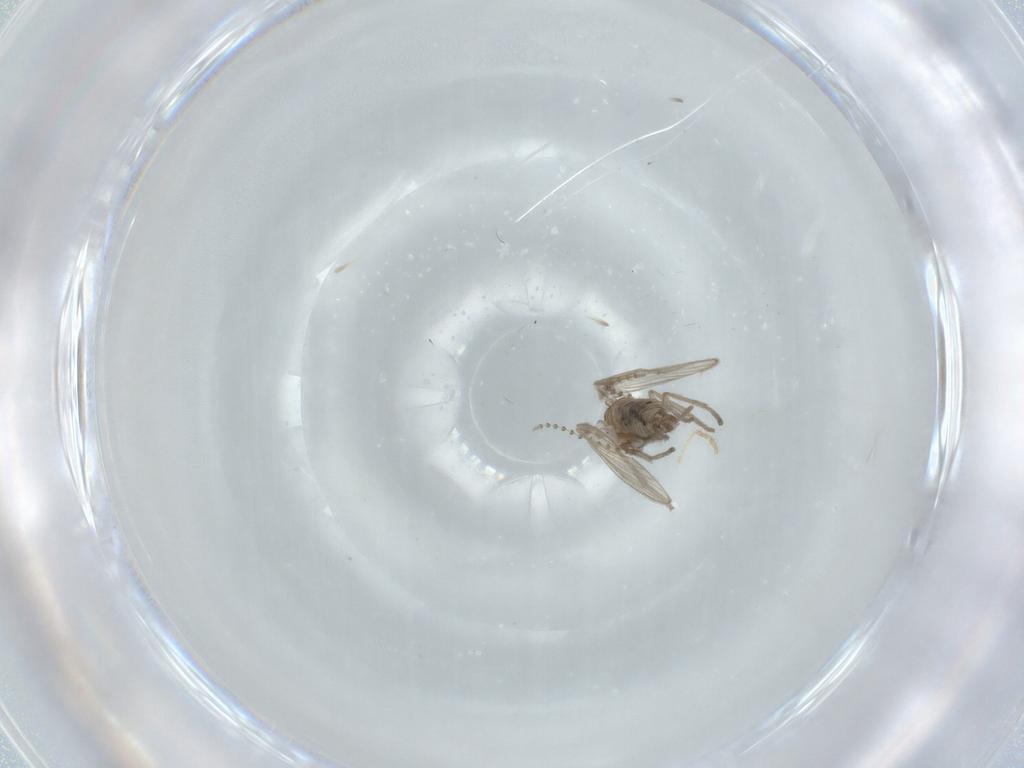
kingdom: Animalia
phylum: Arthropoda
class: Insecta
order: Diptera
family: Psychodidae
